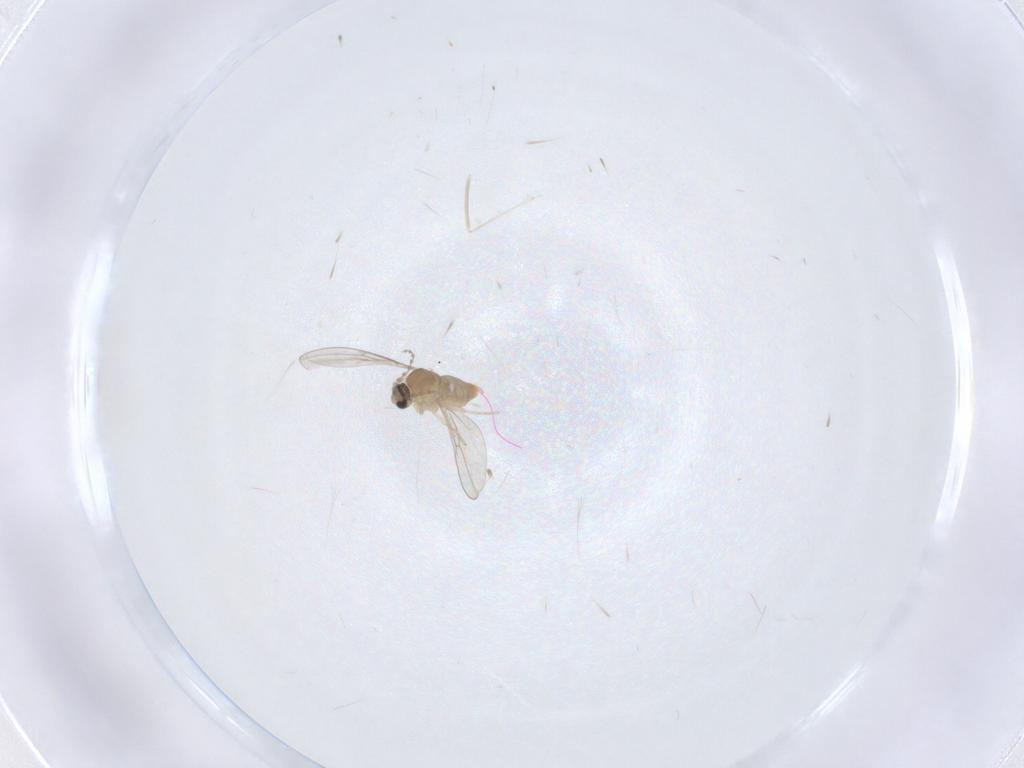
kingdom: Animalia
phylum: Arthropoda
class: Insecta
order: Diptera
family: Cecidomyiidae
